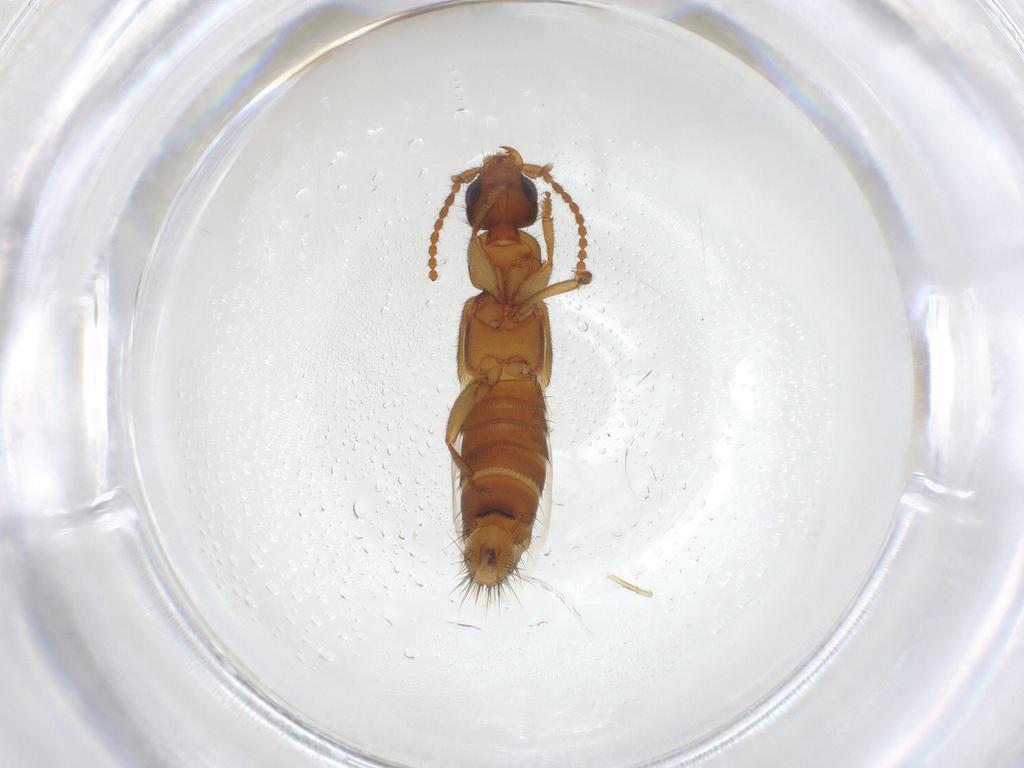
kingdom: Animalia
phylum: Arthropoda
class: Insecta
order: Coleoptera
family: Staphylinidae
